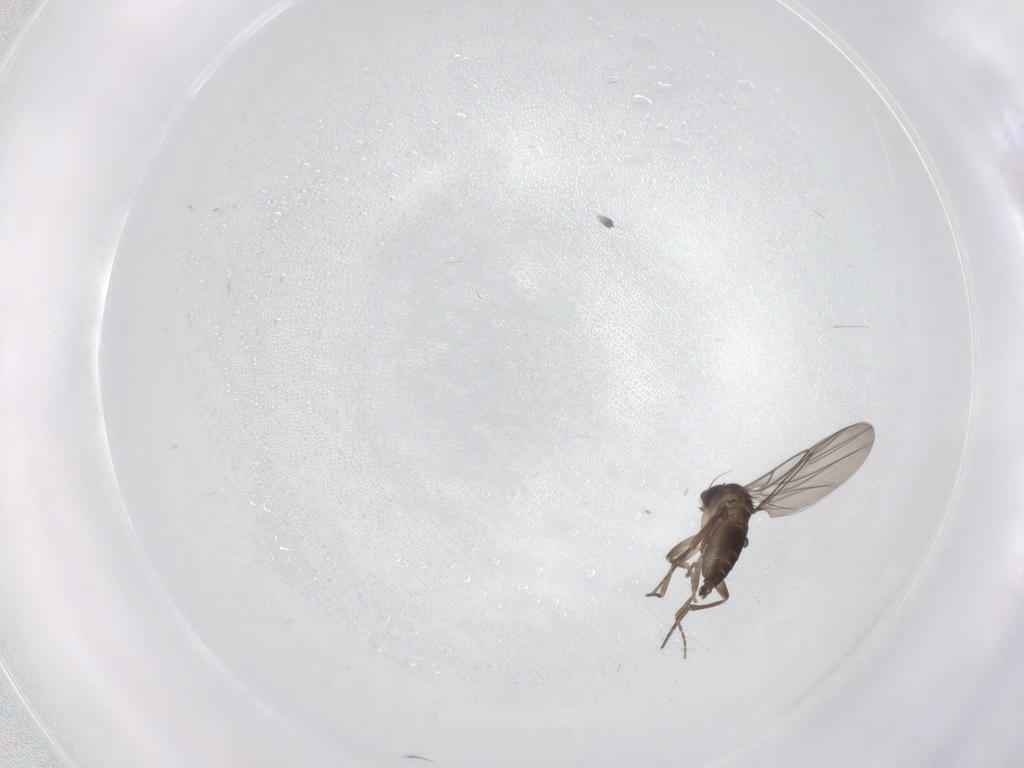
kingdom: Animalia
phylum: Arthropoda
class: Insecta
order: Diptera
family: Phoridae
